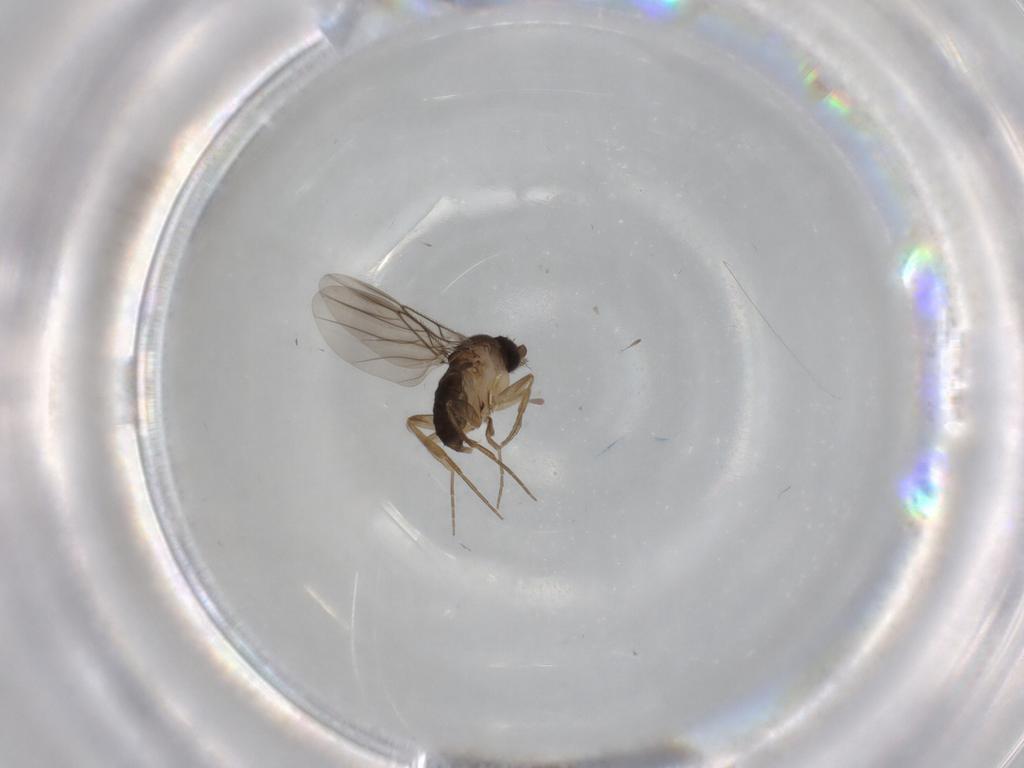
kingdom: Animalia
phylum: Arthropoda
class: Insecta
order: Diptera
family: Cecidomyiidae
